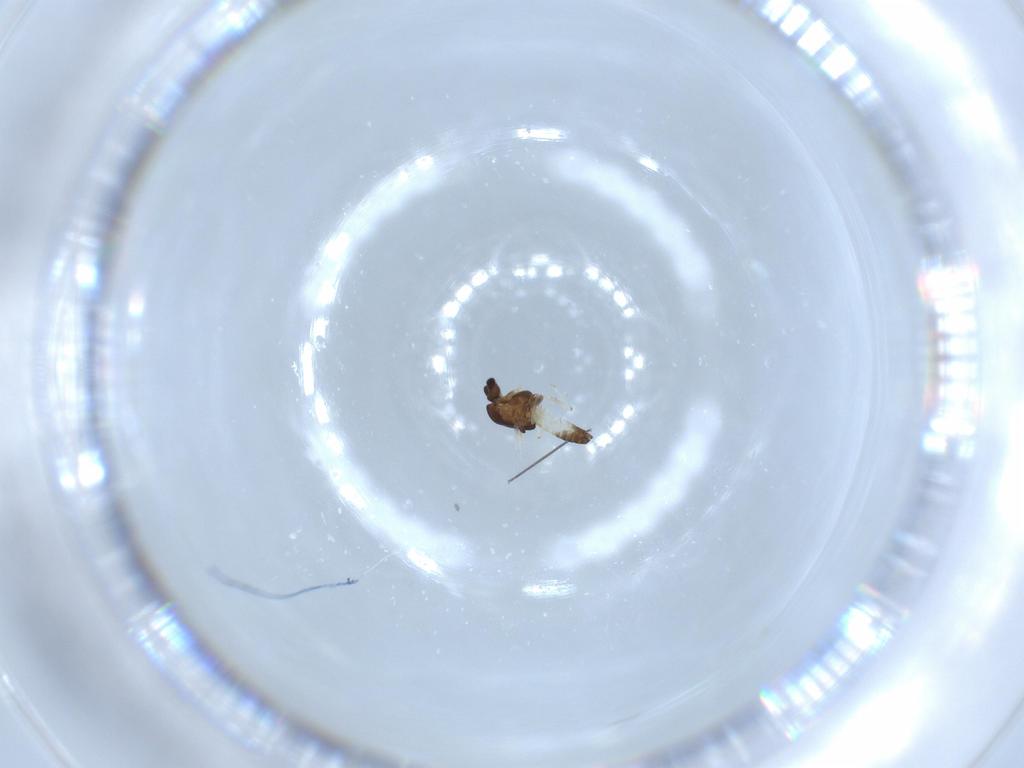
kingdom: Animalia
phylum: Arthropoda
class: Insecta
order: Diptera
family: Chironomidae
